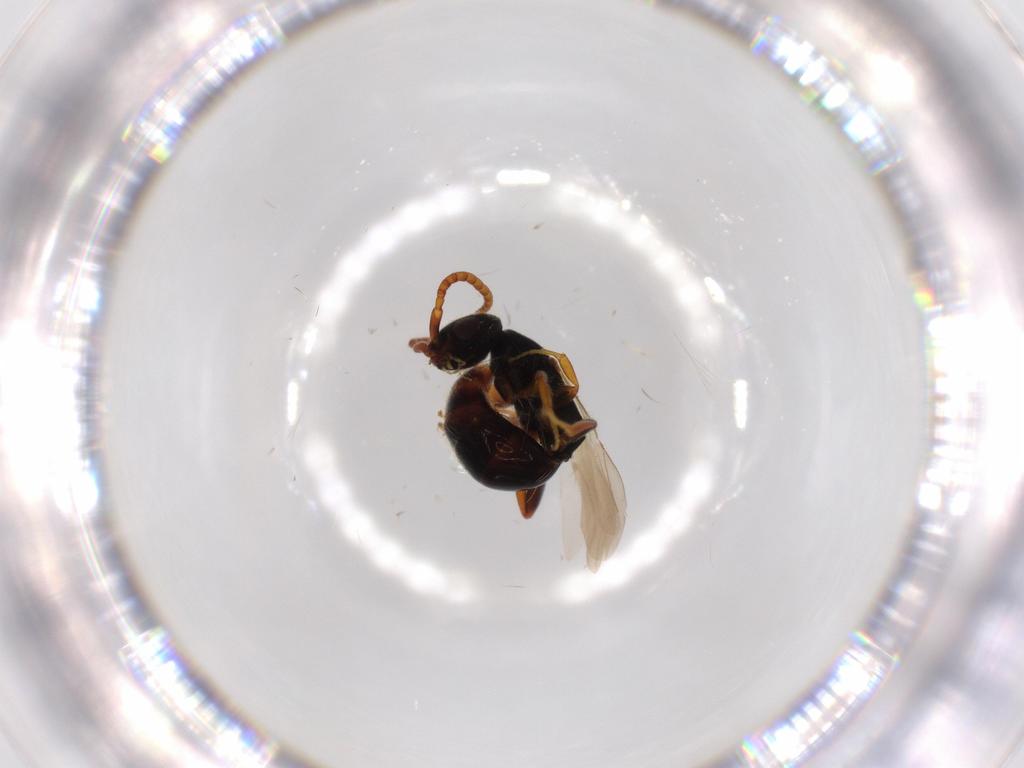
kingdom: Animalia
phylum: Arthropoda
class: Insecta
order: Hymenoptera
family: Bethylidae
